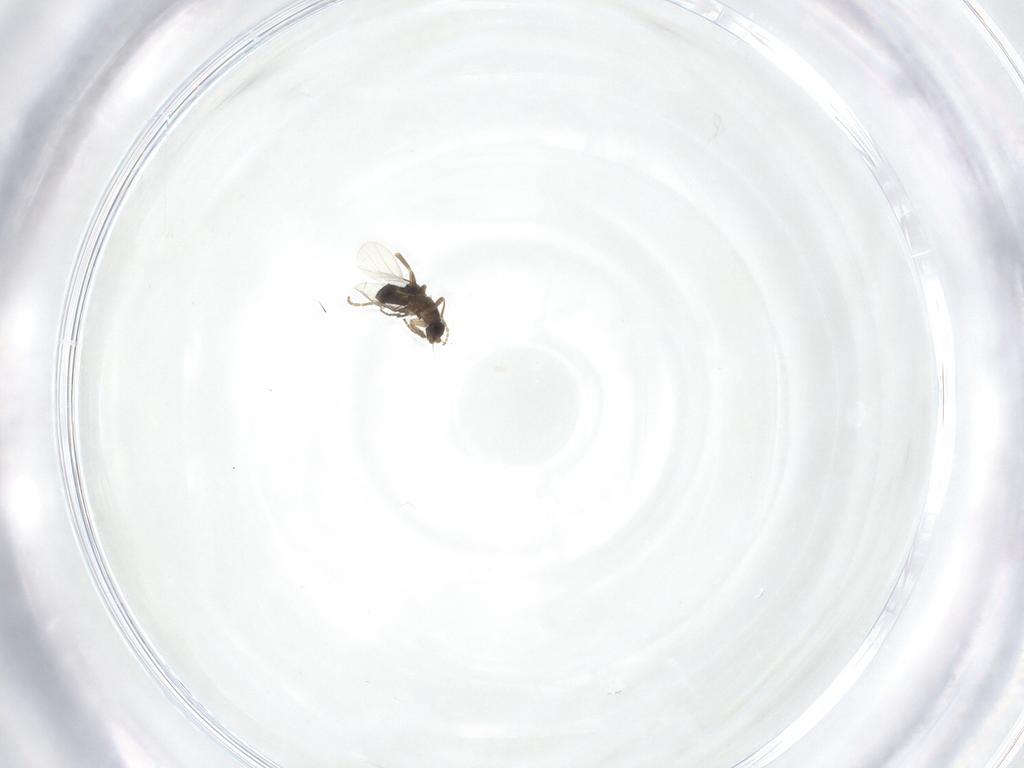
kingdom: Animalia
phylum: Arthropoda
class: Insecta
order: Diptera
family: Phoridae
